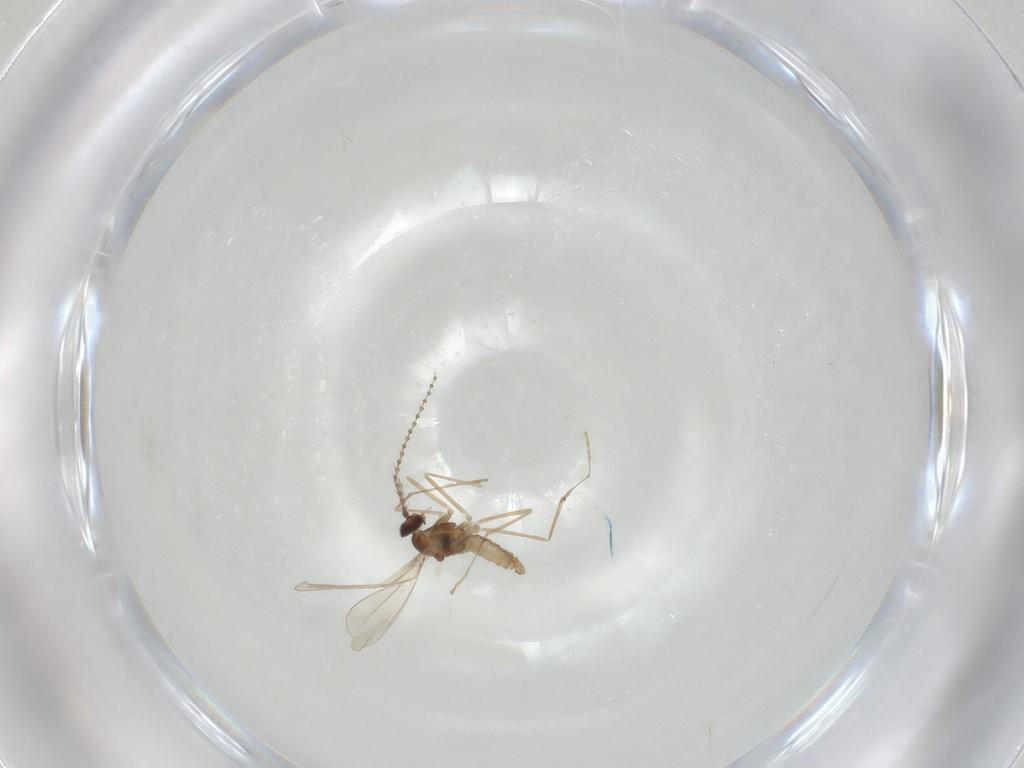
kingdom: Animalia
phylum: Arthropoda
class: Insecta
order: Diptera
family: Cecidomyiidae
